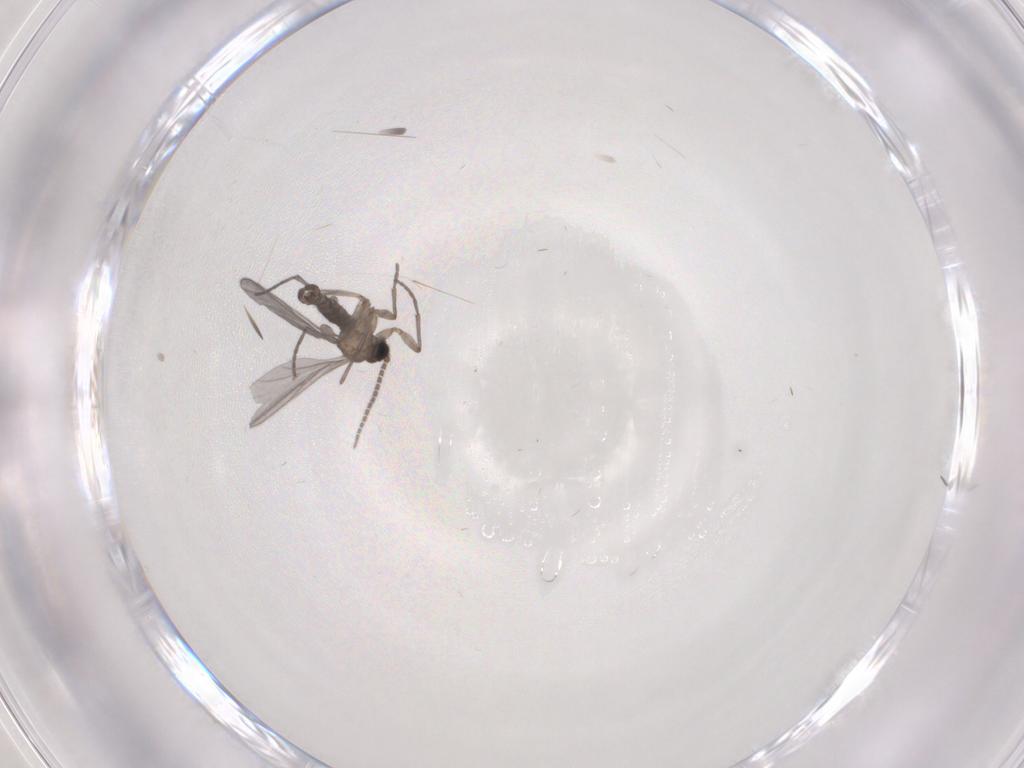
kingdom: Animalia
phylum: Arthropoda
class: Insecta
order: Diptera
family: Sciaridae
